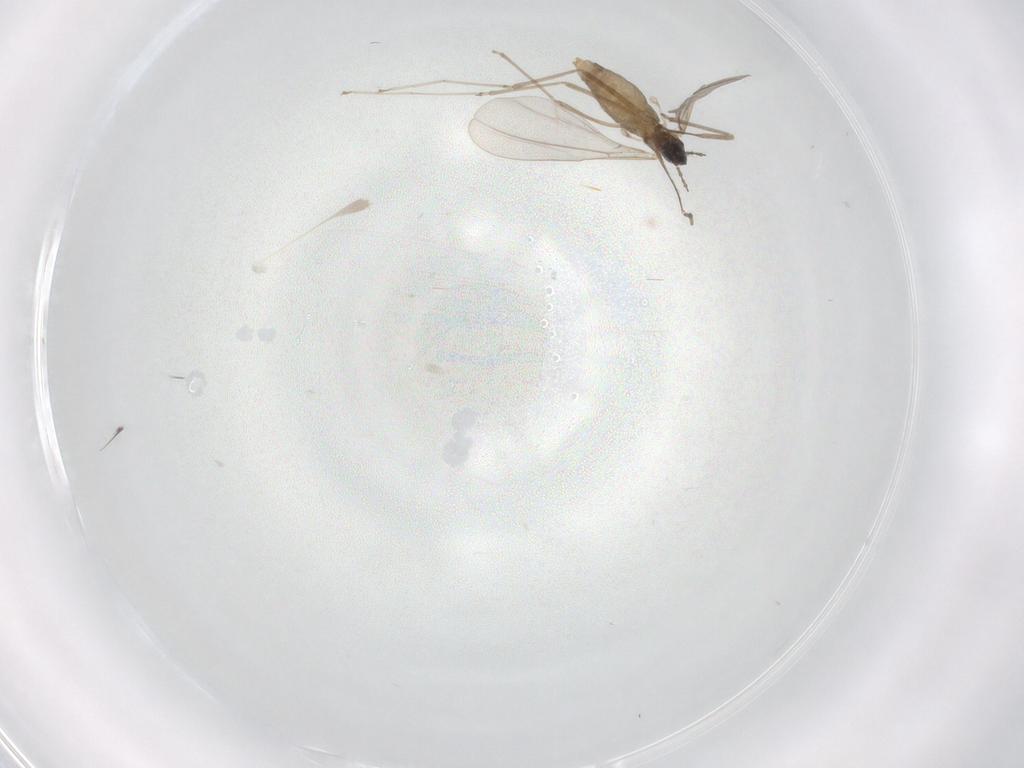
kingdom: Animalia
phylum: Arthropoda
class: Insecta
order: Diptera
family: Cecidomyiidae
